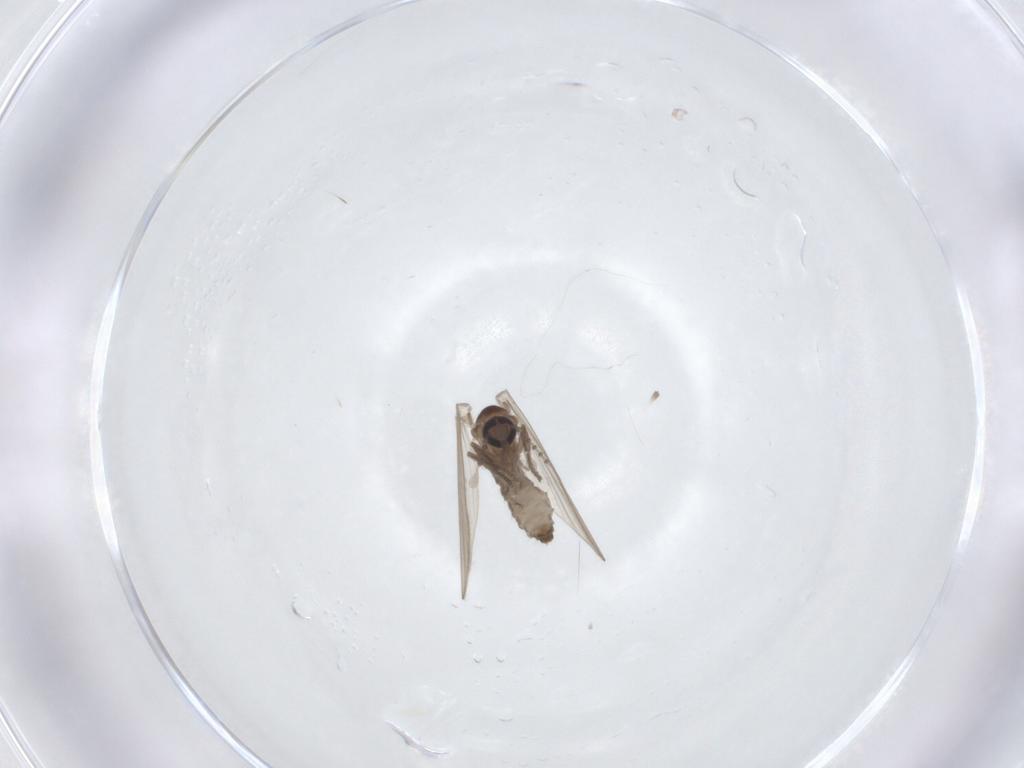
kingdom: Animalia
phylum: Arthropoda
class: Insecta
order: Diptera
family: Psychodidae
